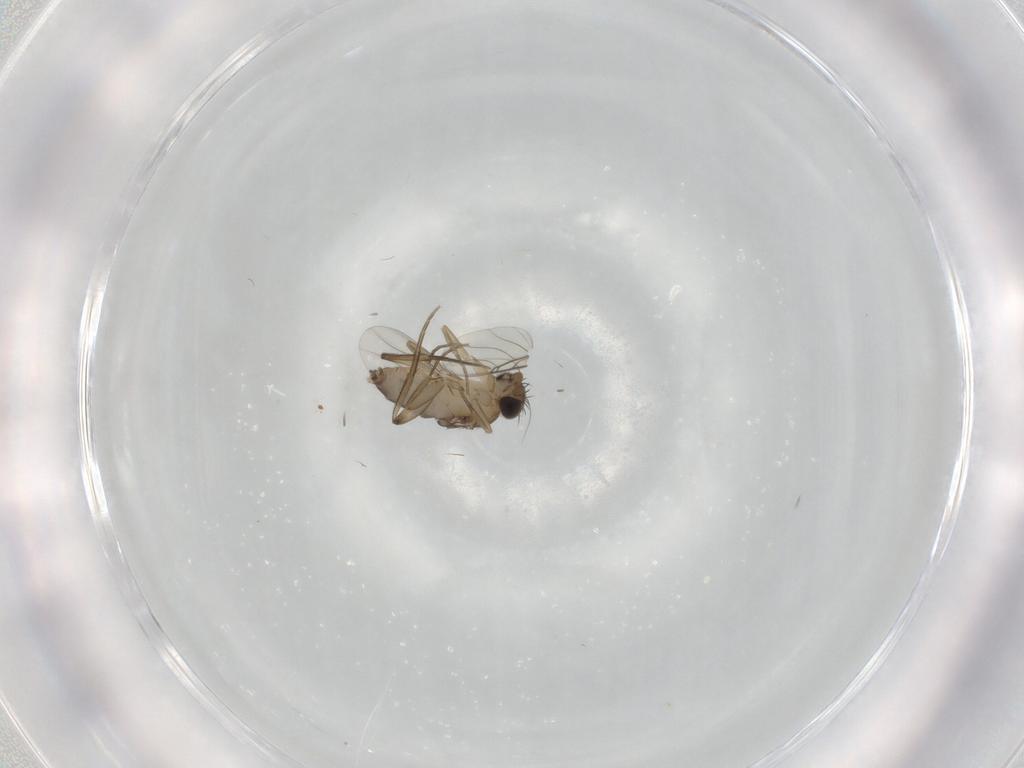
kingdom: Animalia
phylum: Arthropoda
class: Insecta
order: Diptera
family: Phoridae
